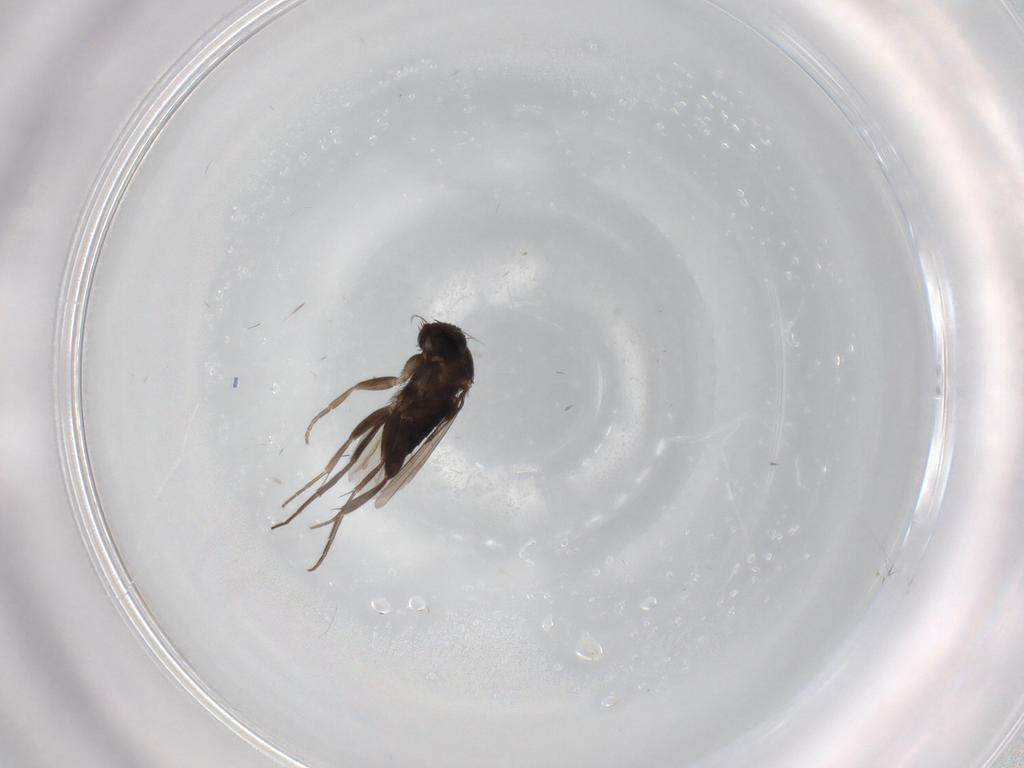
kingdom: Animalia
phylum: Arthropoda
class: Insecta
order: Diptera
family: Phoridae
